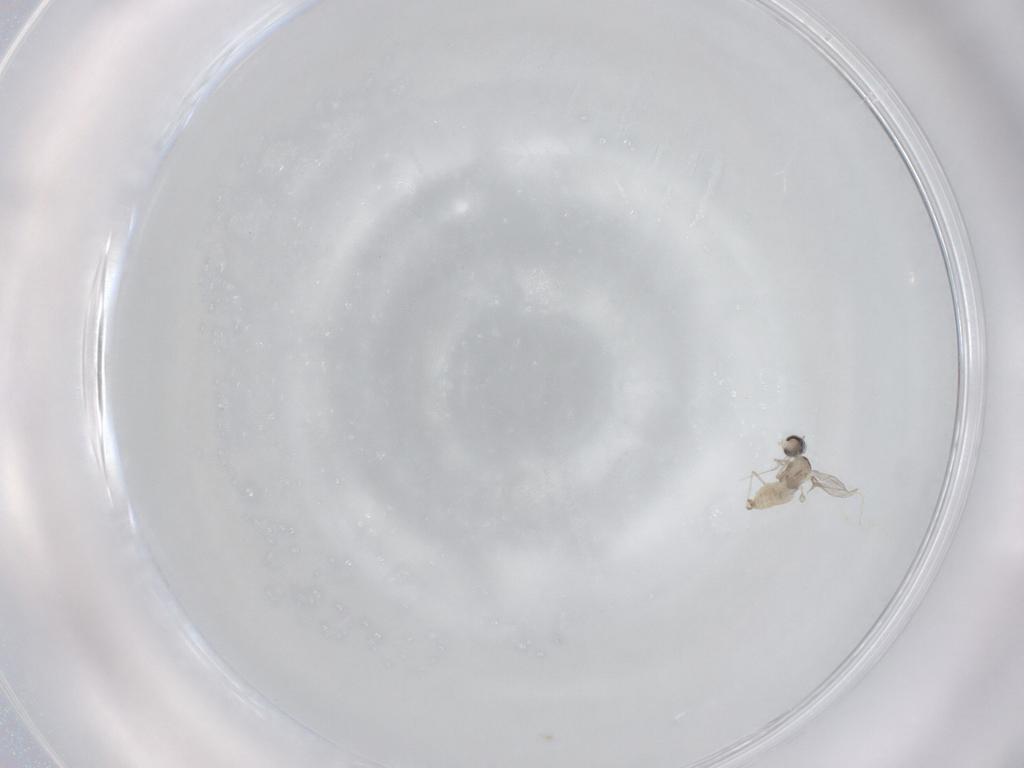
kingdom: Animalia
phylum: Arthropoda
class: Insecta
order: Diptera
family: Cecidomyiidae
